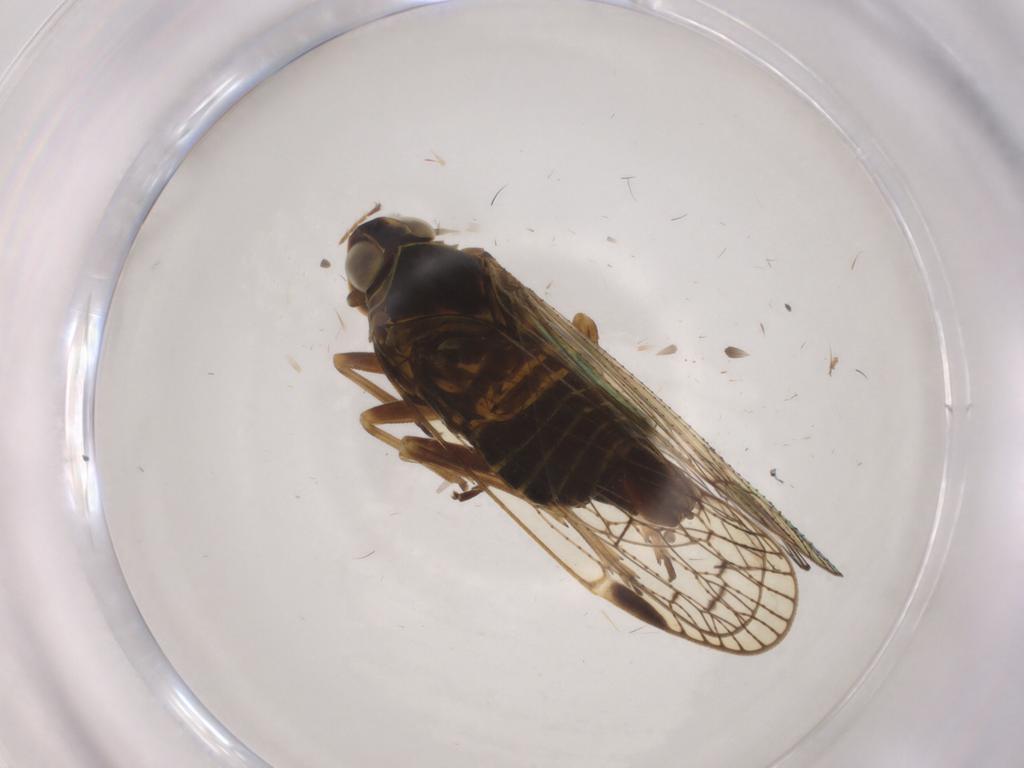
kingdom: Animalia
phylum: Arthropoda
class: Insecta
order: Hemiptera
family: Cixiidae
